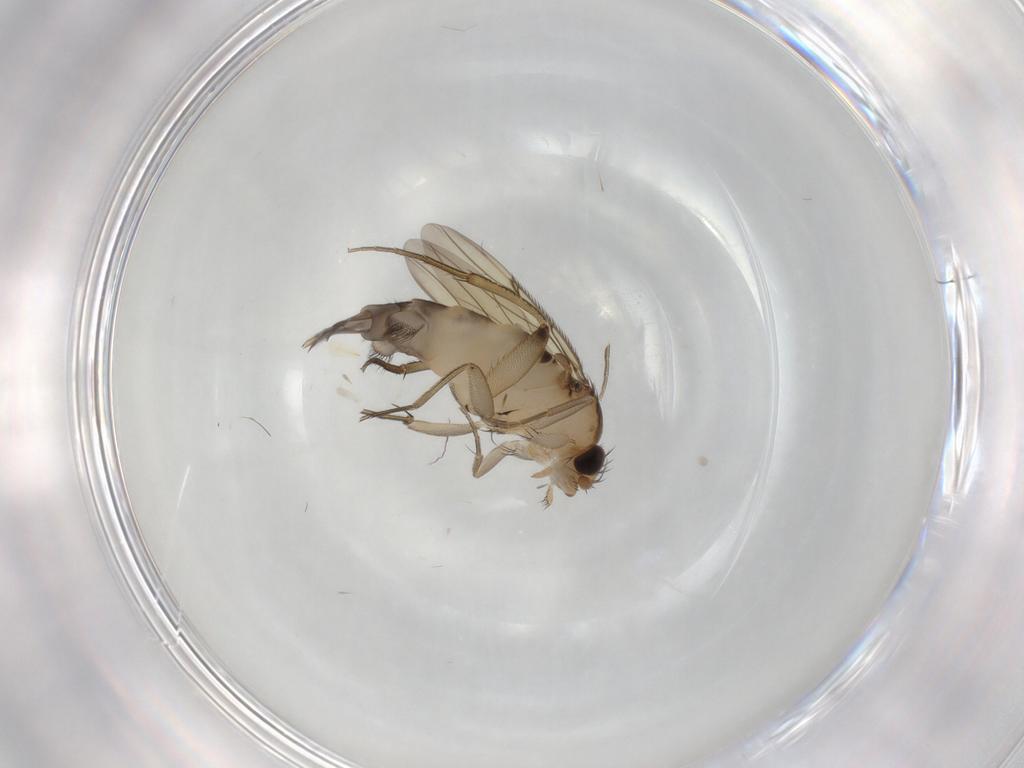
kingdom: Animalia
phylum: Arthropoda
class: Insecta
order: Diptera
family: Phoridae
